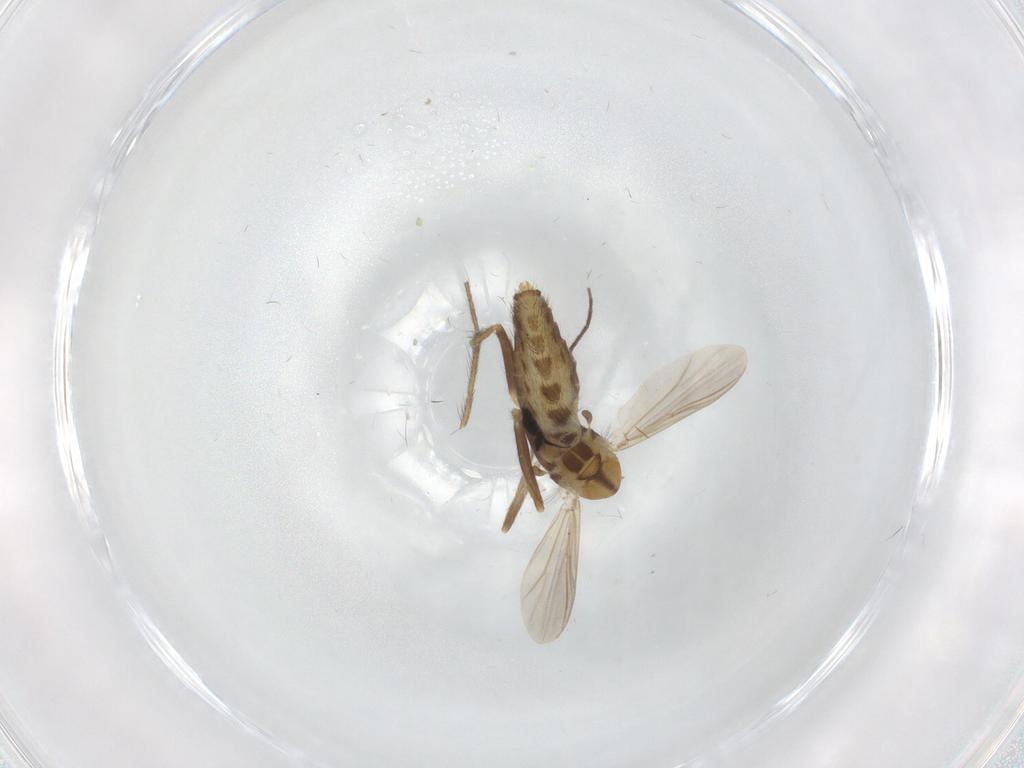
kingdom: Animalia
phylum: Arthropoda
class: Insecta
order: Diptera
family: Chironomidae
